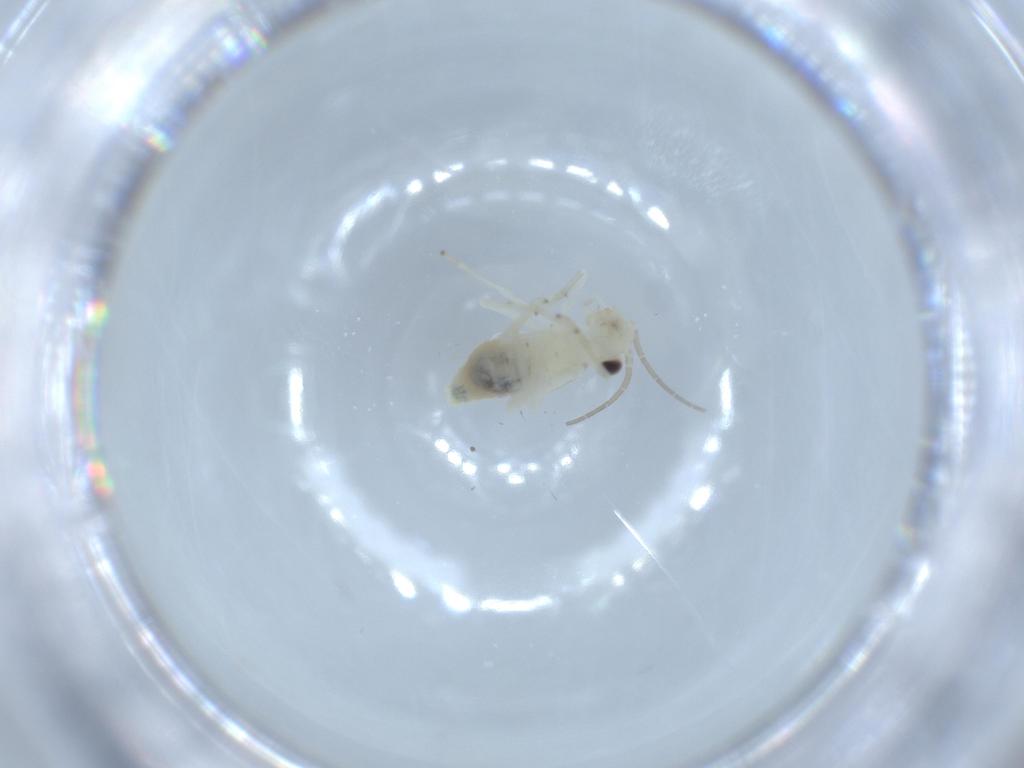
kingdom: Animalia
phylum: Arthropoda
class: Insecta
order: Psocodea
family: Caeciliusidae
